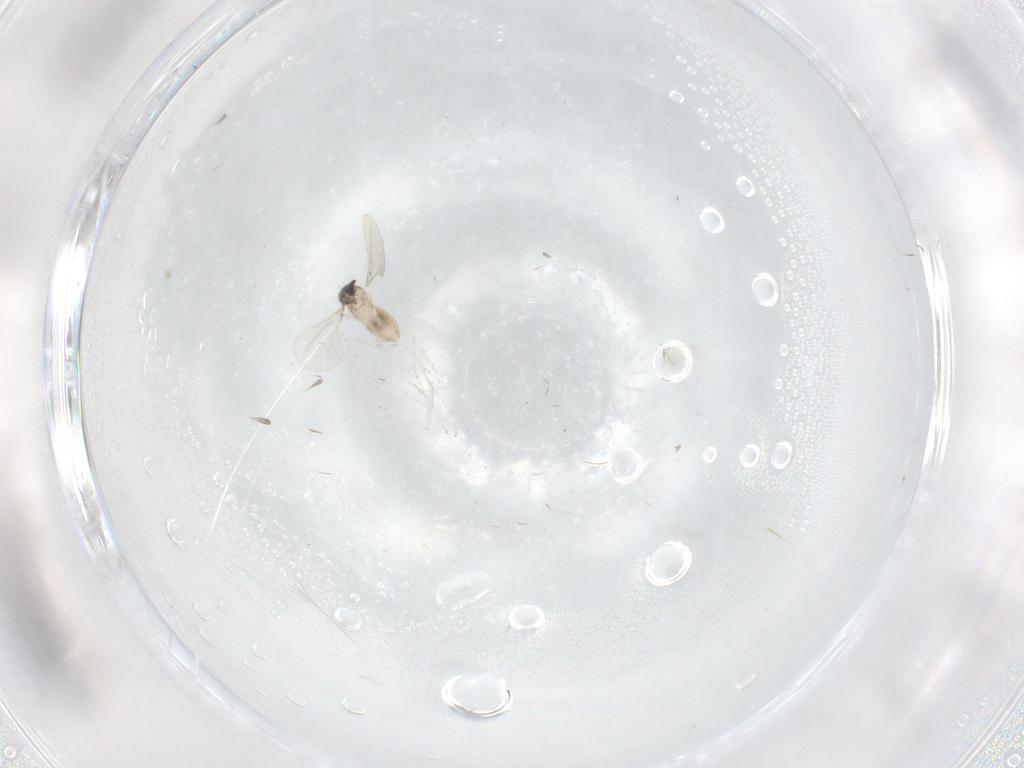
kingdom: Animalia
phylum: Arthropoda
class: Insecta
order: Diptera
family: Cecidomyiidae
